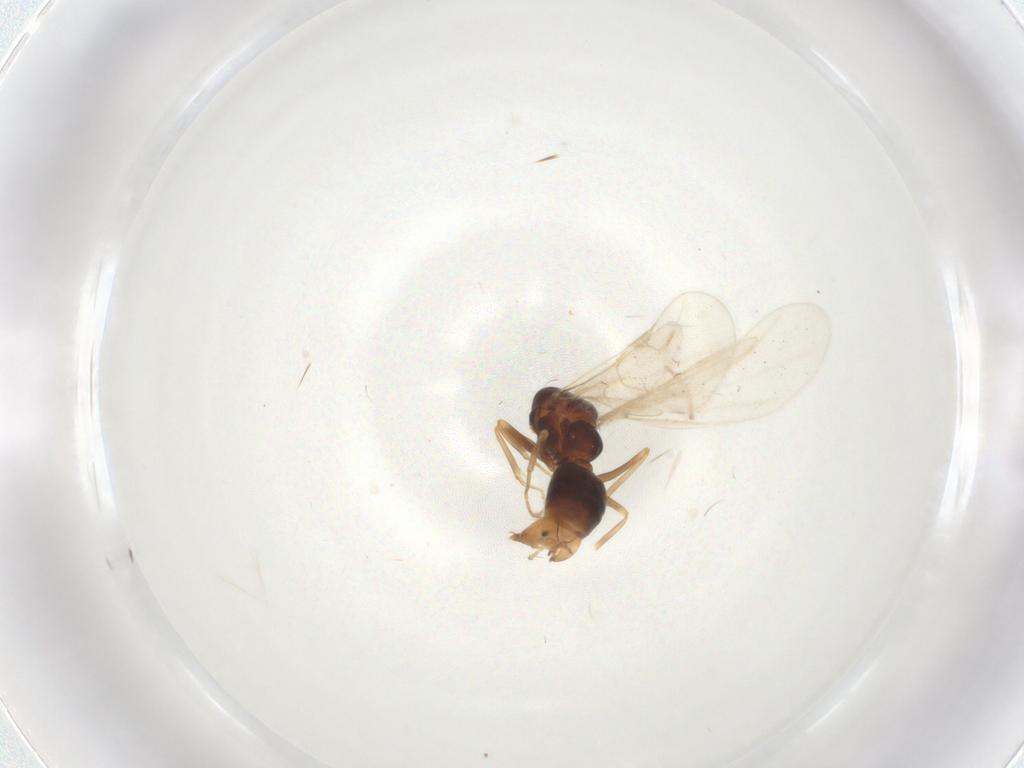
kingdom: Animalia
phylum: Arthropoda
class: Insecta
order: Hymenoptera
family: Formicidae
